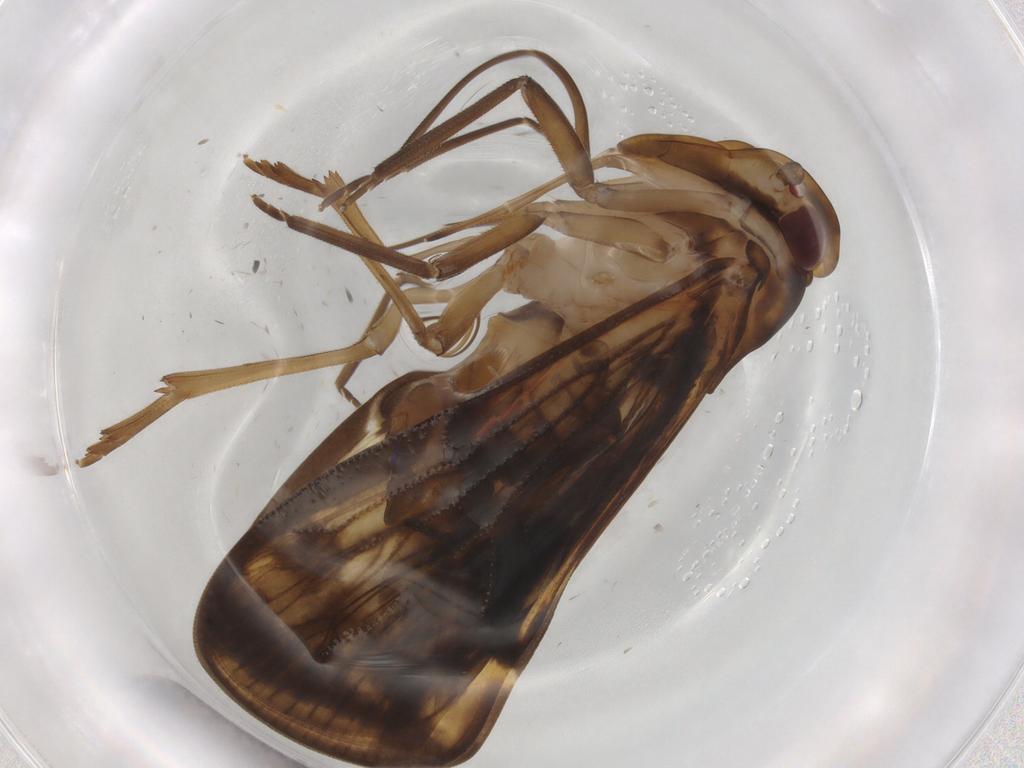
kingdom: Animalia
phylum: Arthropoda
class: Insecta
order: Hemiptera
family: Cixiidae
